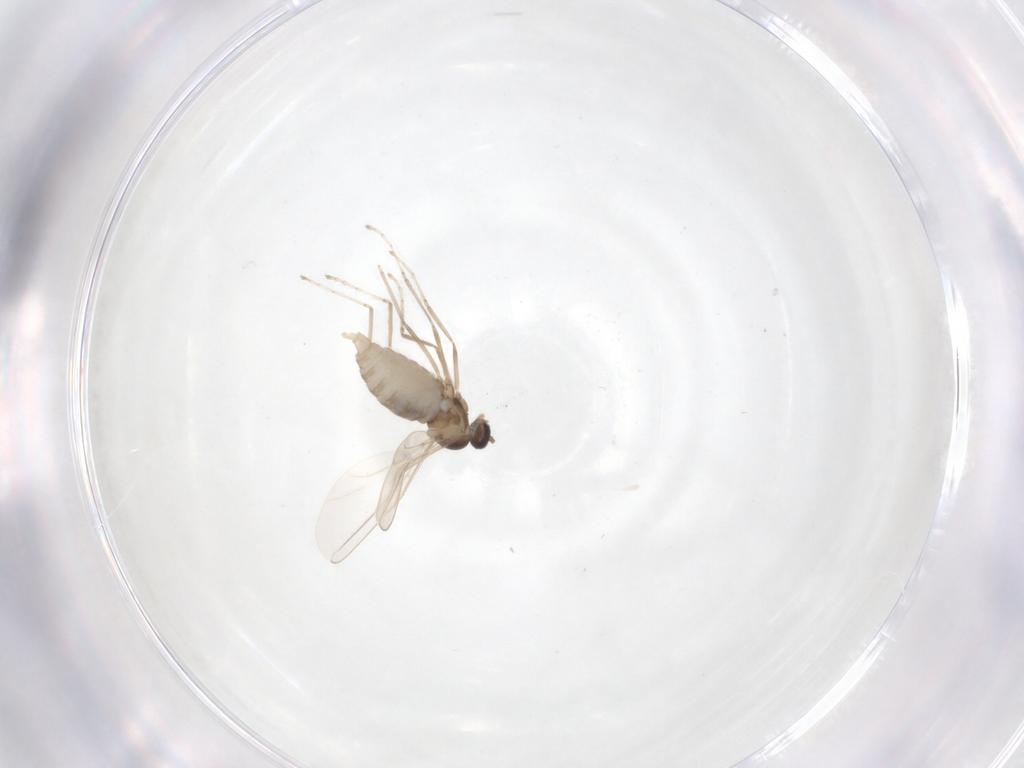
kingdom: Animalia
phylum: Arthropoda
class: Insecta
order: Diptera
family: Cecidomyiidae
